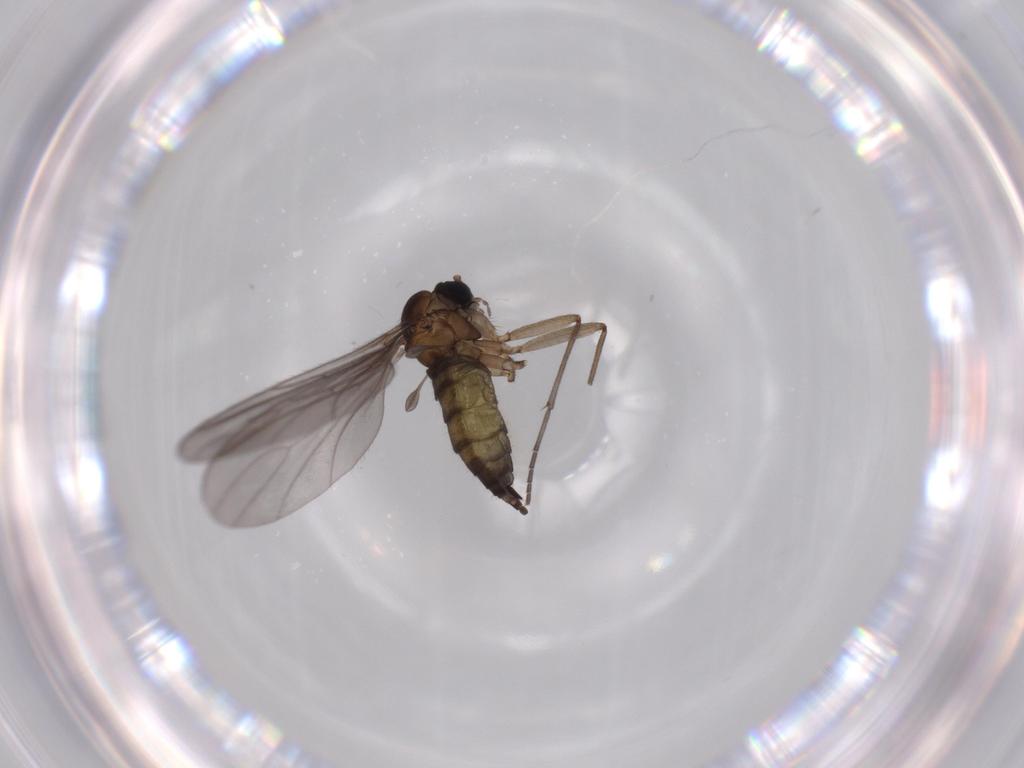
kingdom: Animalia
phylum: Arthropoda
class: Insecta
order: Diptera
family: Sciaridae
